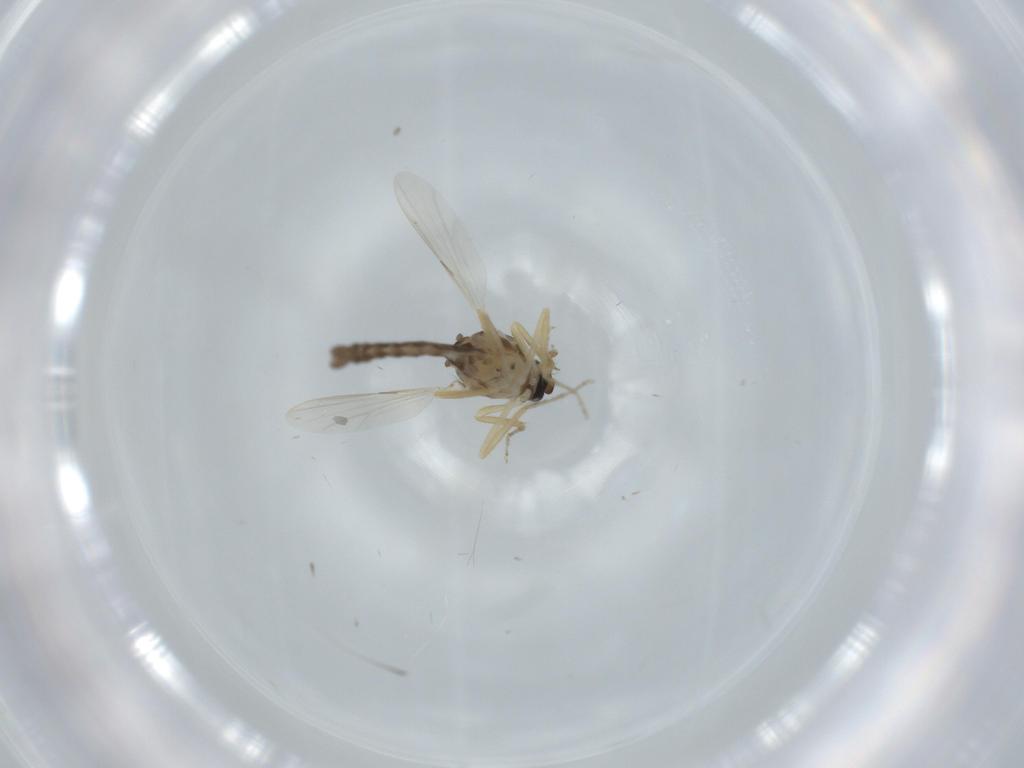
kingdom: Animalia
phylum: Arthropoda
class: Insecta
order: Diptera
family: Ceratopogonidae
